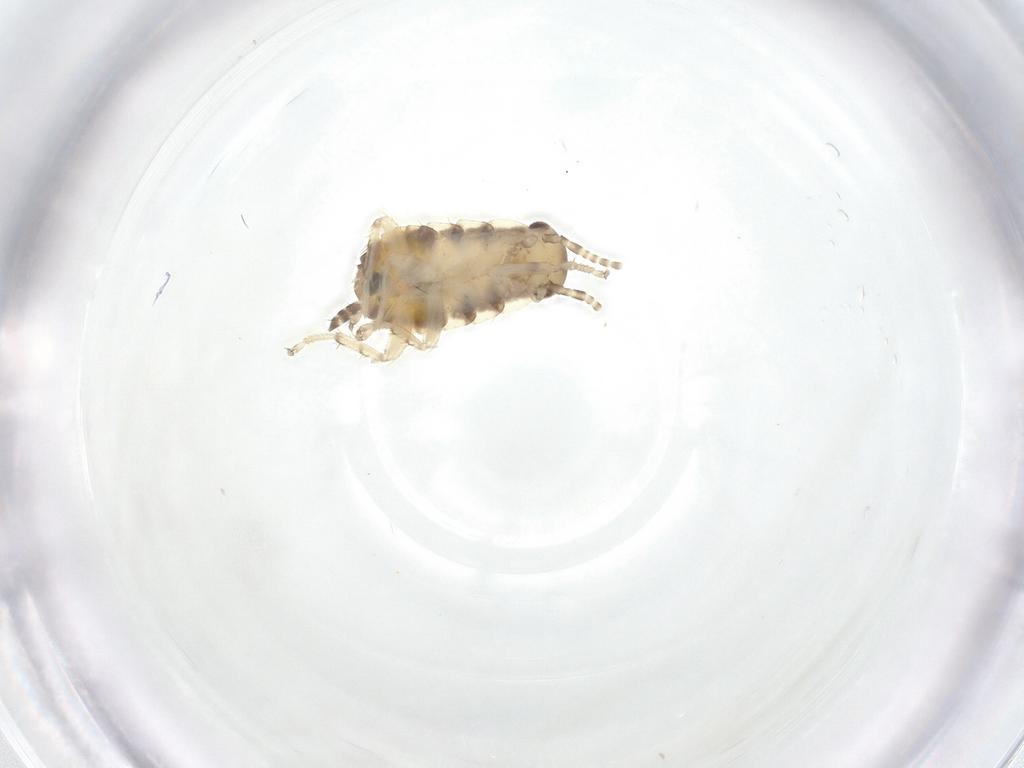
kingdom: Animalia
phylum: Arthropoda
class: Insecta
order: Blattodea
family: Ectobiidae
